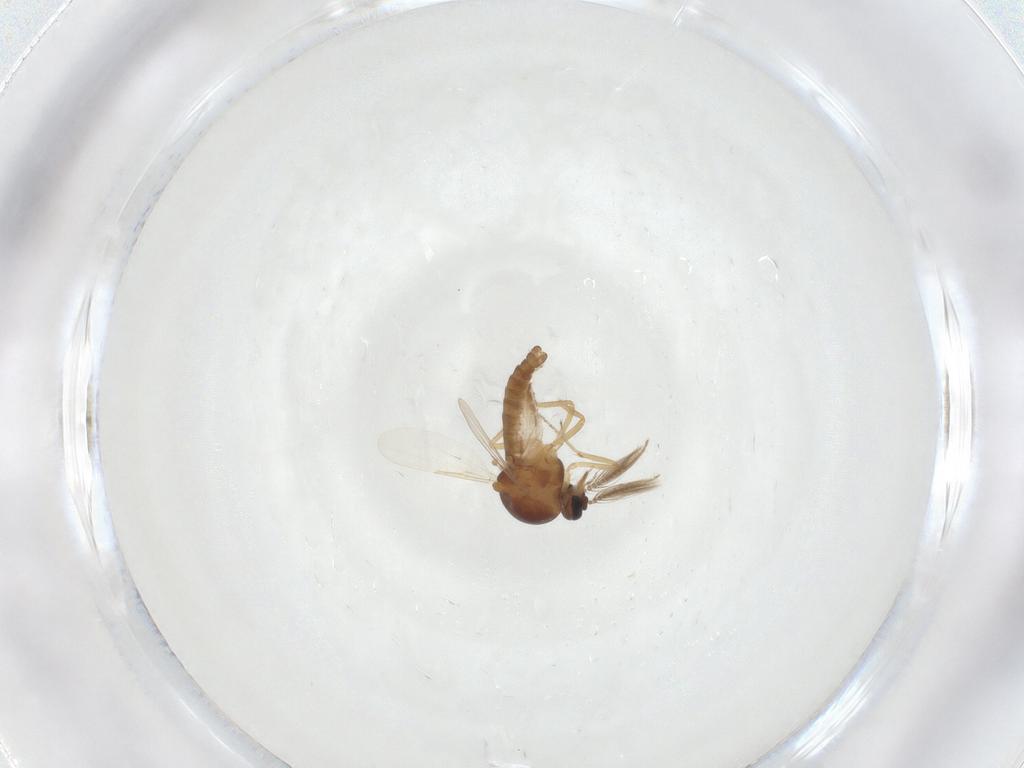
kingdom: Animalia
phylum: Arthropoda
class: Insecta
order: Diptera
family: Ceratopogonidae
